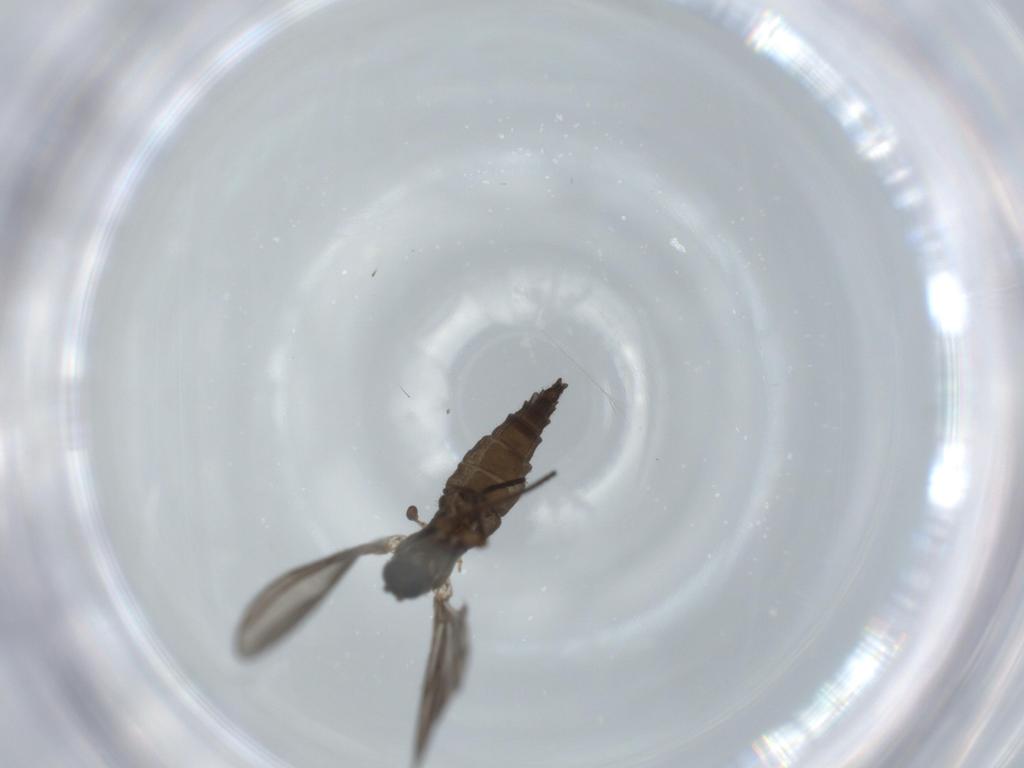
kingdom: Animalia
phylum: Arthropoda
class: Insecta
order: Diptera
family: Sciaridae
